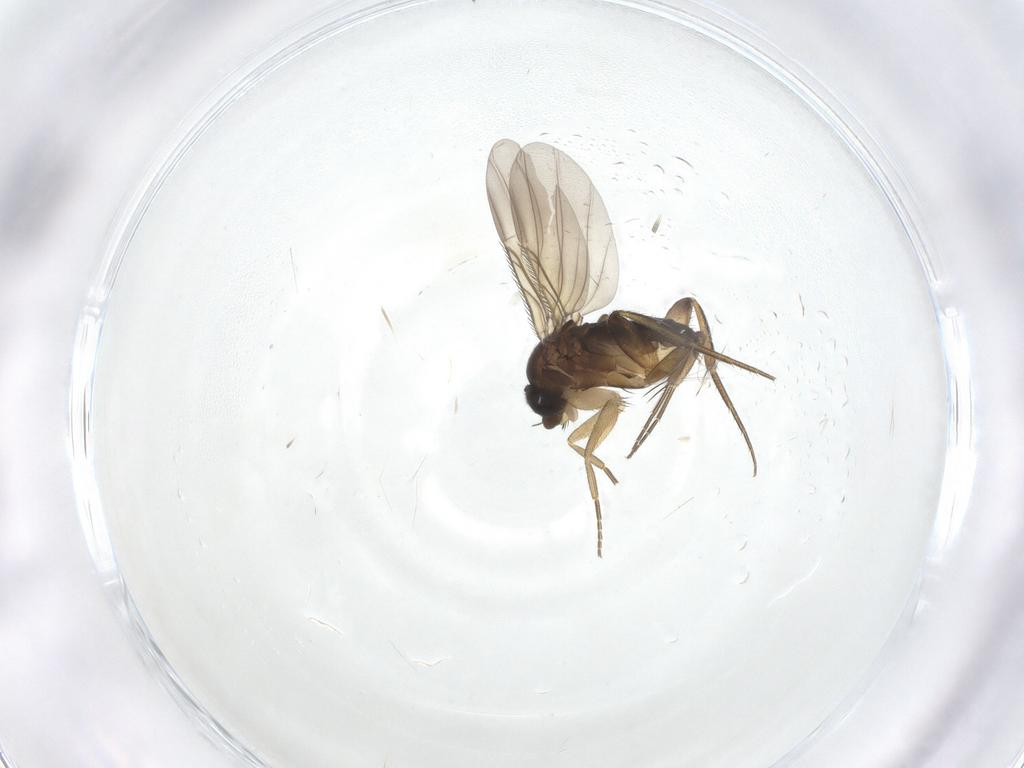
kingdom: Animalia
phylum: Arthropoda
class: Insecta
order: Diptera
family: Phoridae
